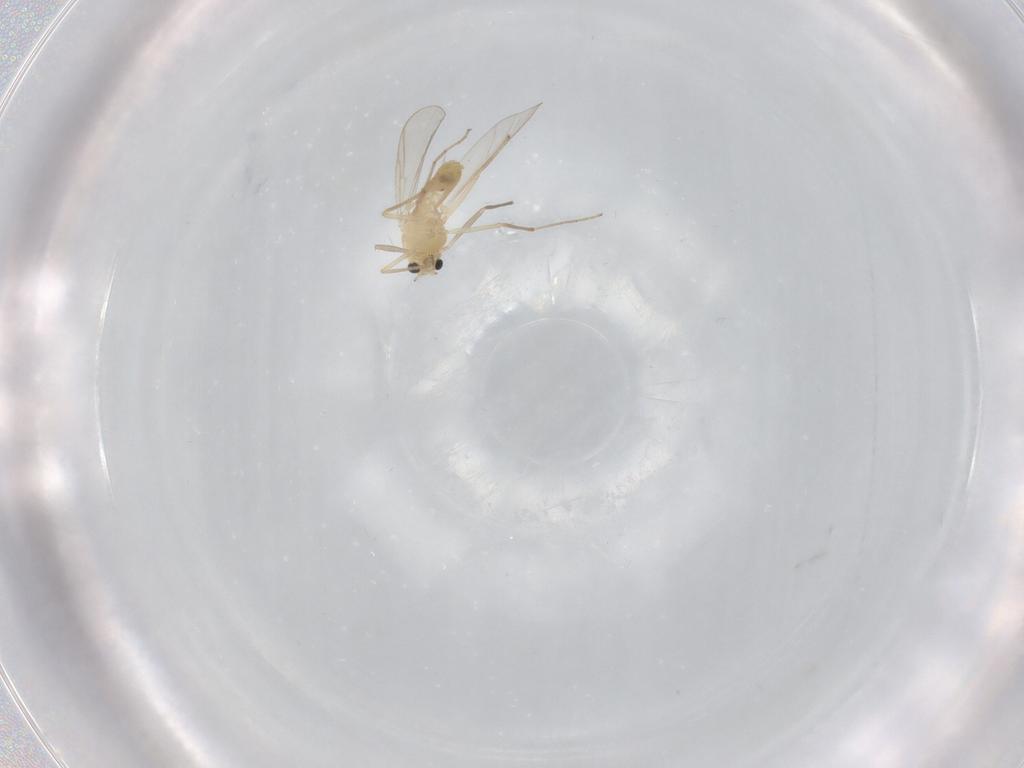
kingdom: Animalia
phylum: Arthropoda
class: Insecta
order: Diptera
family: Chironomidae
